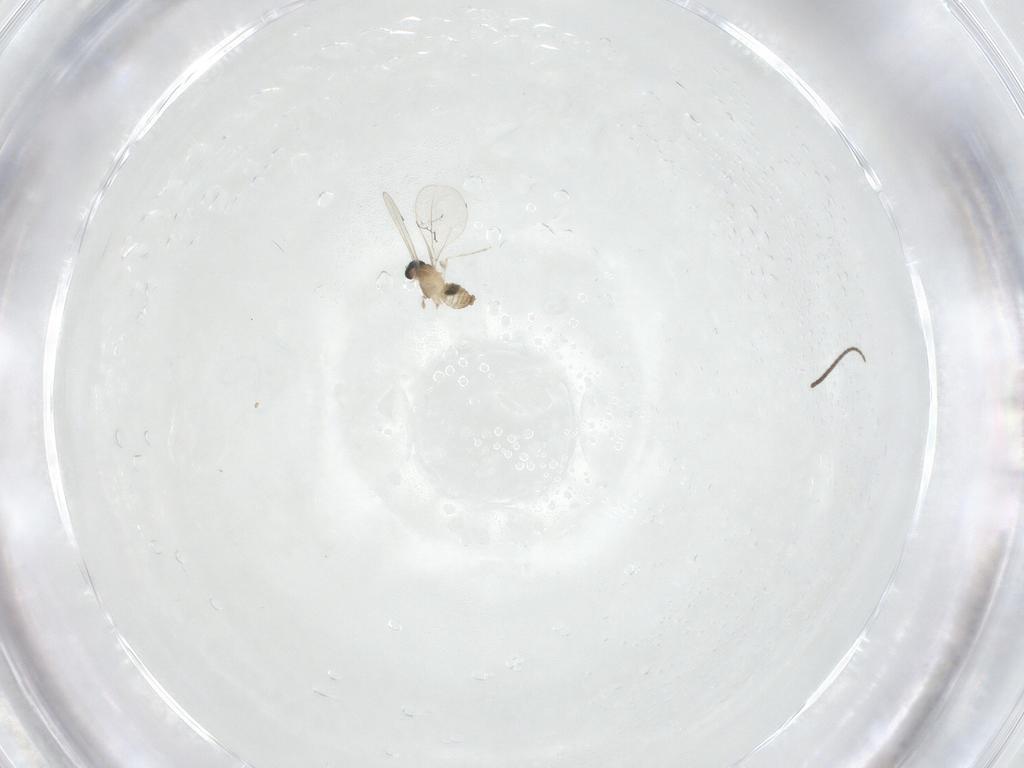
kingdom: Animalia
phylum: Arthropoda
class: Insecta
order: Diptera
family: Cecidomyiidae
